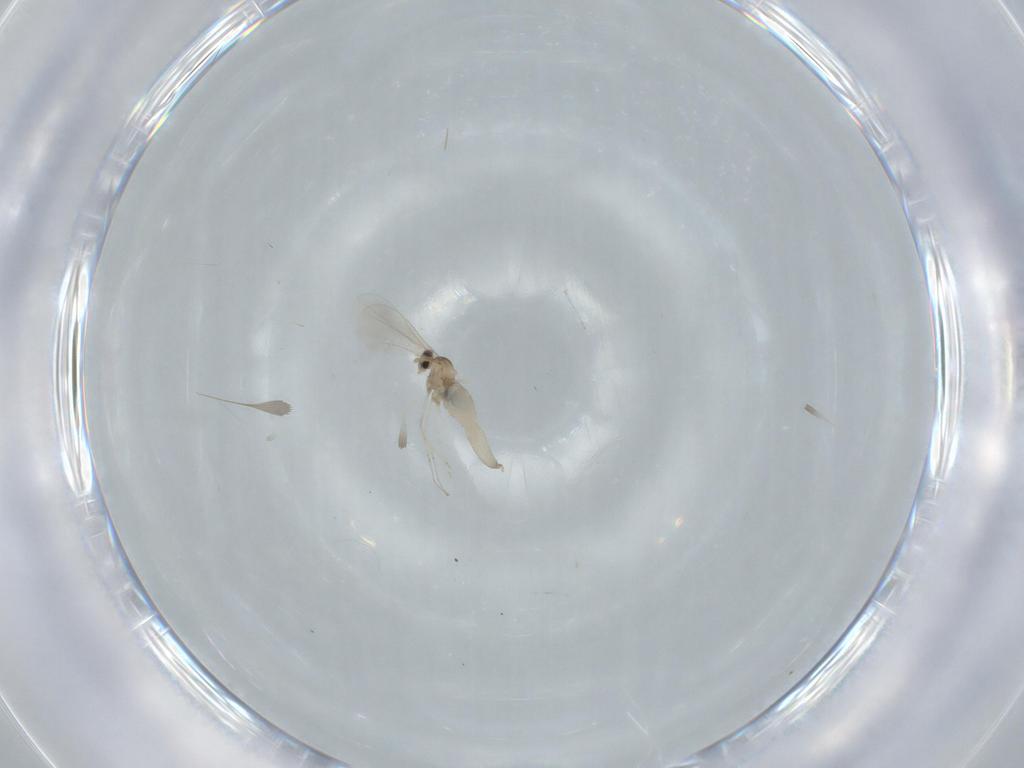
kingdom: Animalia
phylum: Arthropoda
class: Insecta
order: Diptera
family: Cecidomyiidae
